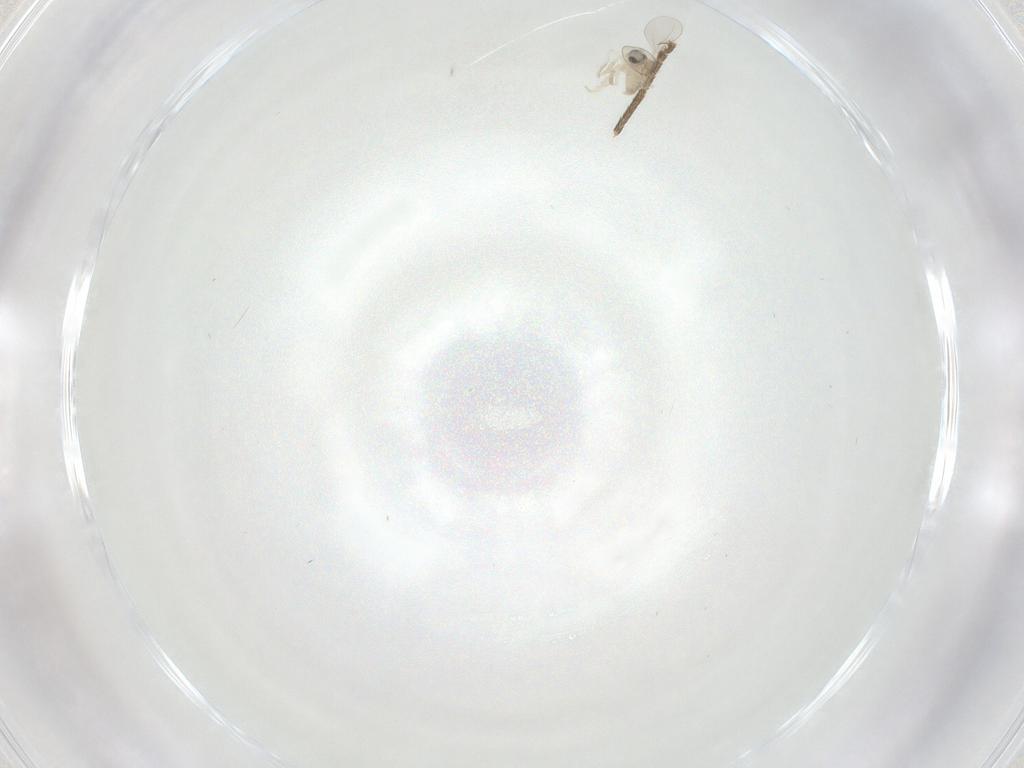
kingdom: Animalia
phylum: Arthropoda
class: Insecta
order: Diptera
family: Cecidomyiidae
